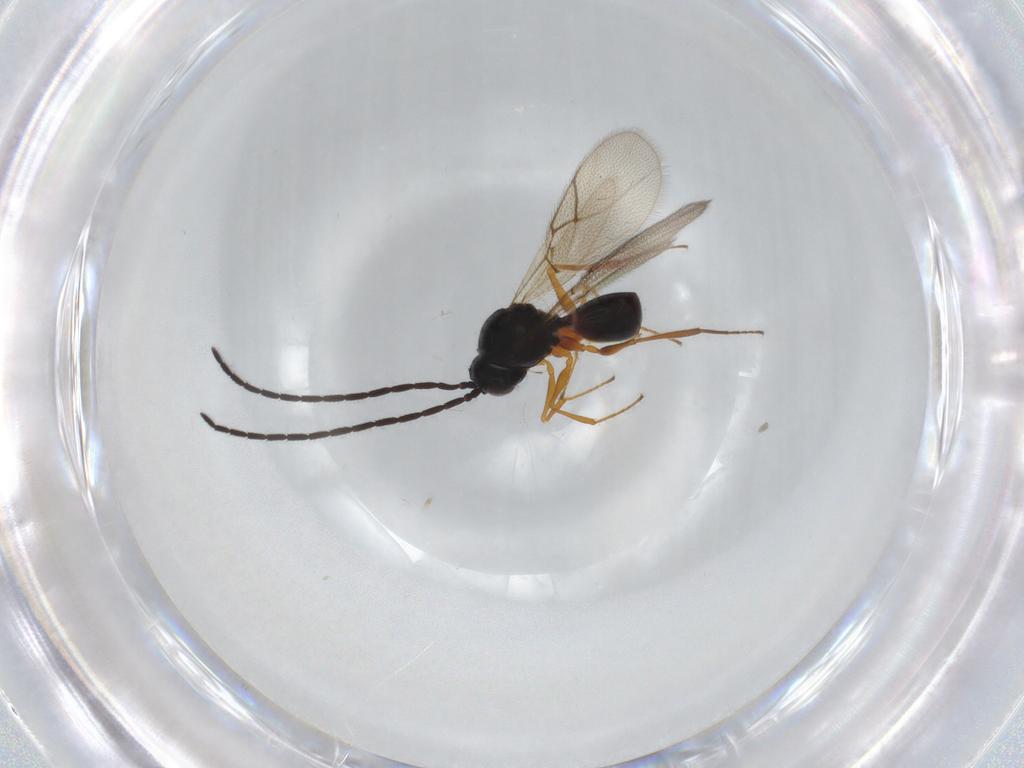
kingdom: Animalia
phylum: Arthropoda
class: Insecta
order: Hymenoptera
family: Figitidae
